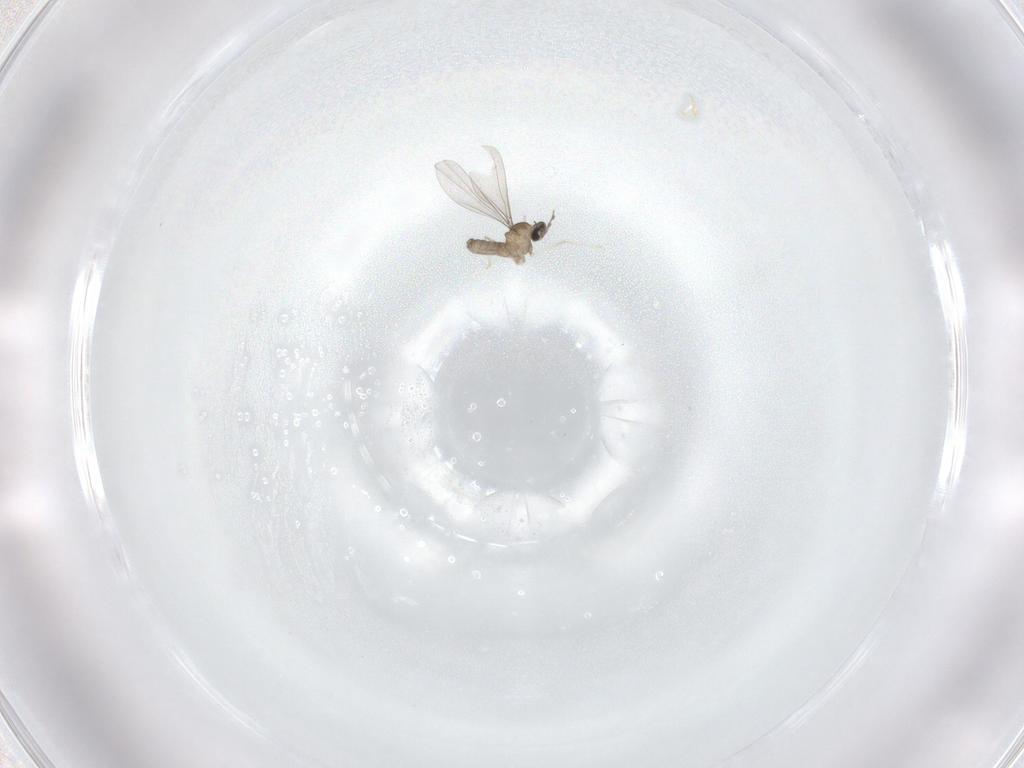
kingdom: Animalia
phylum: Arthropoda
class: Insecta
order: Diptera
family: Cecidomyiidae
